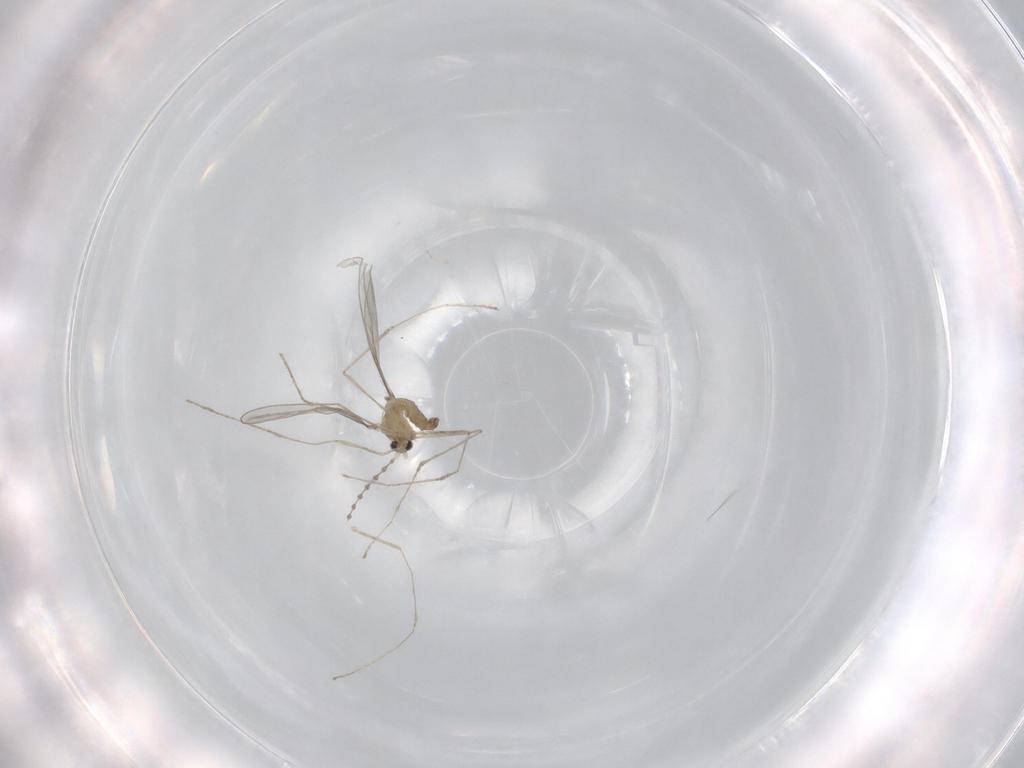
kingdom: Animalia
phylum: Arthropoda
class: Insecta
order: Diptera
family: Cecidomyiidae
